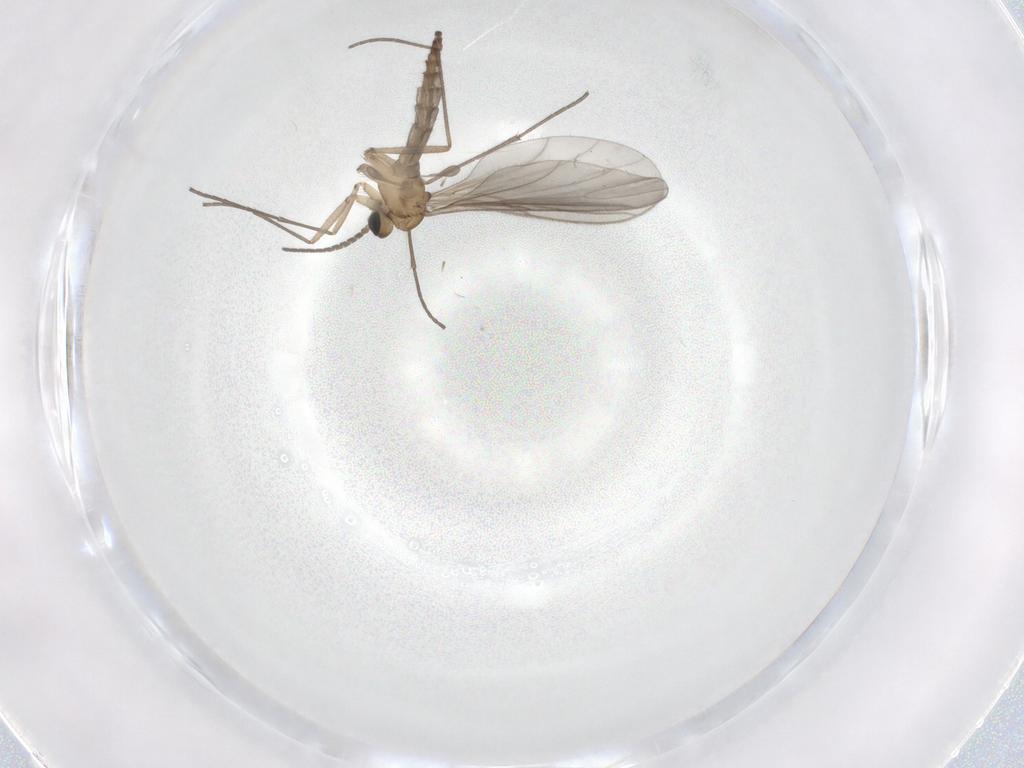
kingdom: Animalia
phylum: Arthropoda
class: Insecta
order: Diptera
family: Sciaridae
